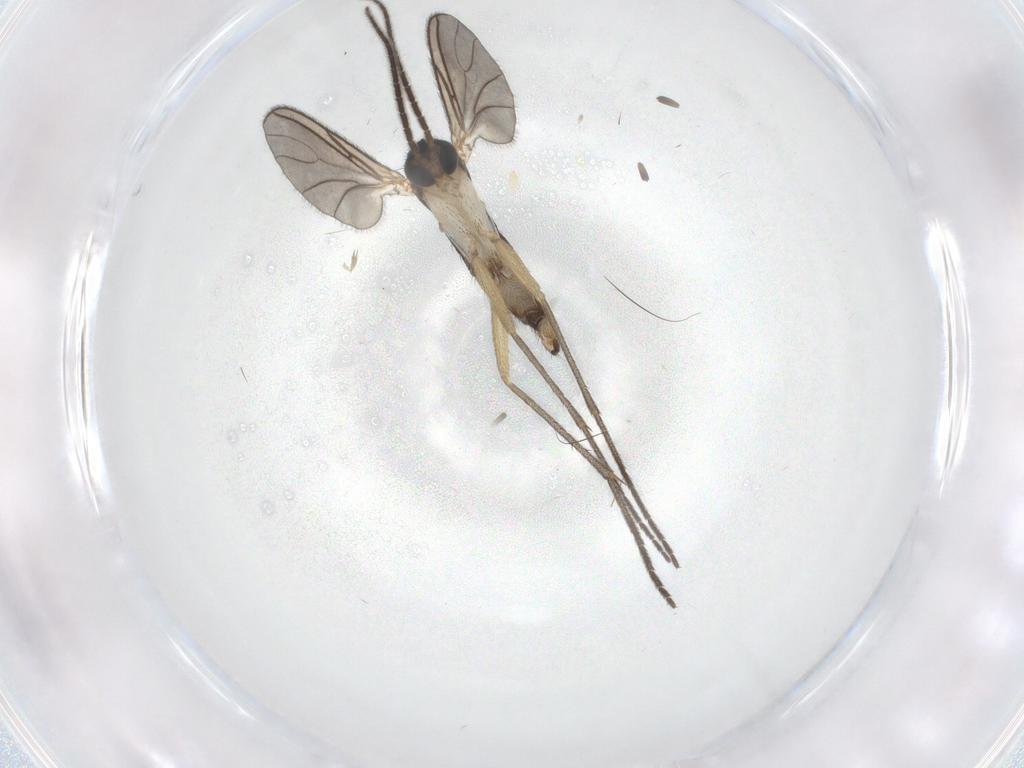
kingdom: Animalia
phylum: Arthropoda
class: Insecta
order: Diptera
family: Sciaridae
